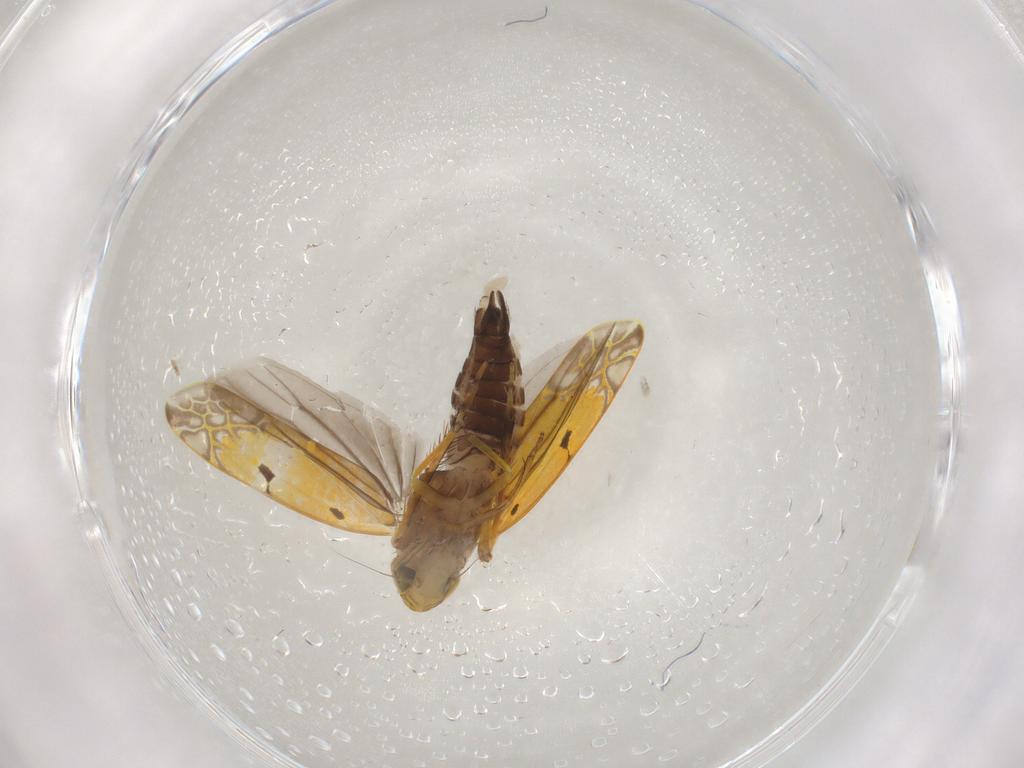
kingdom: Animalia
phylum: Arthropoda
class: Insecta
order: Hemiptera
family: Cicadellidae
